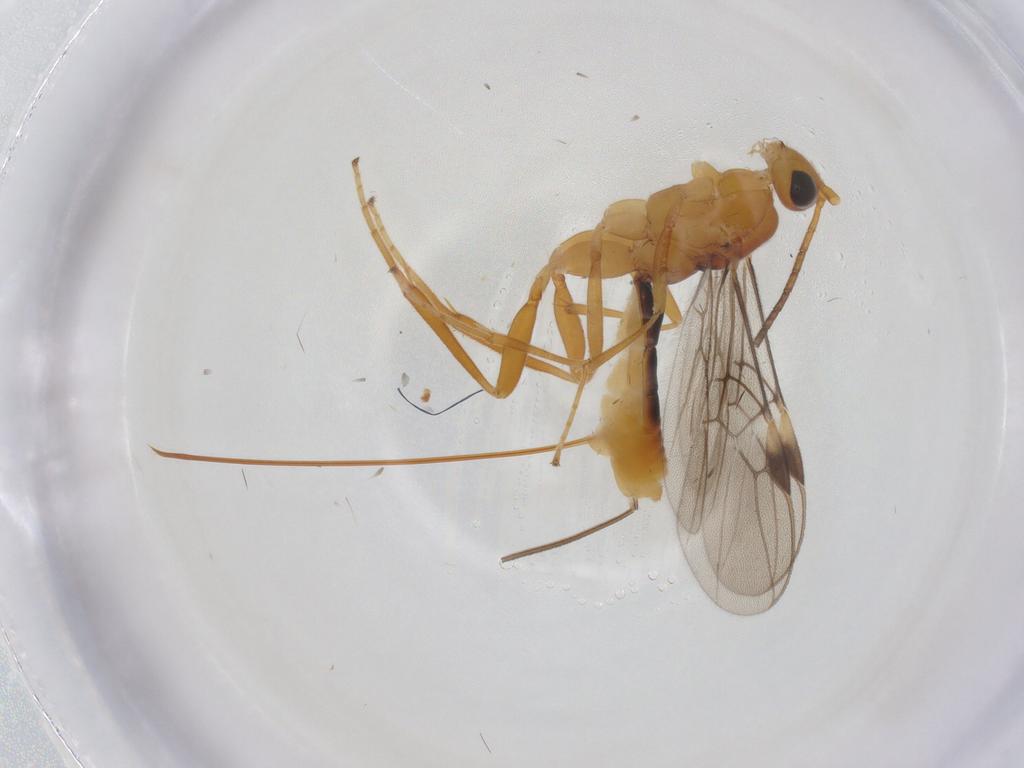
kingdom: Animalia
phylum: Arthropoda
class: Insecta
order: Hymenoptera
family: Braconidae
